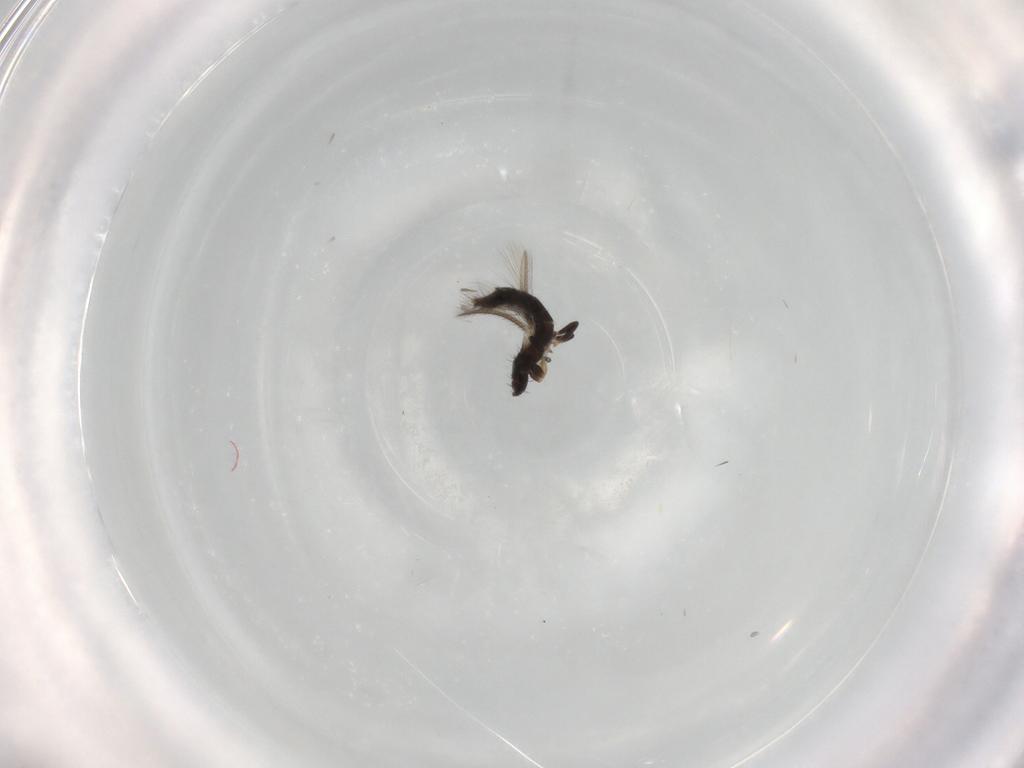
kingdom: Animalia
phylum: Arthropoda
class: Insecta
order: Thysanoptera
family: Thripidae
